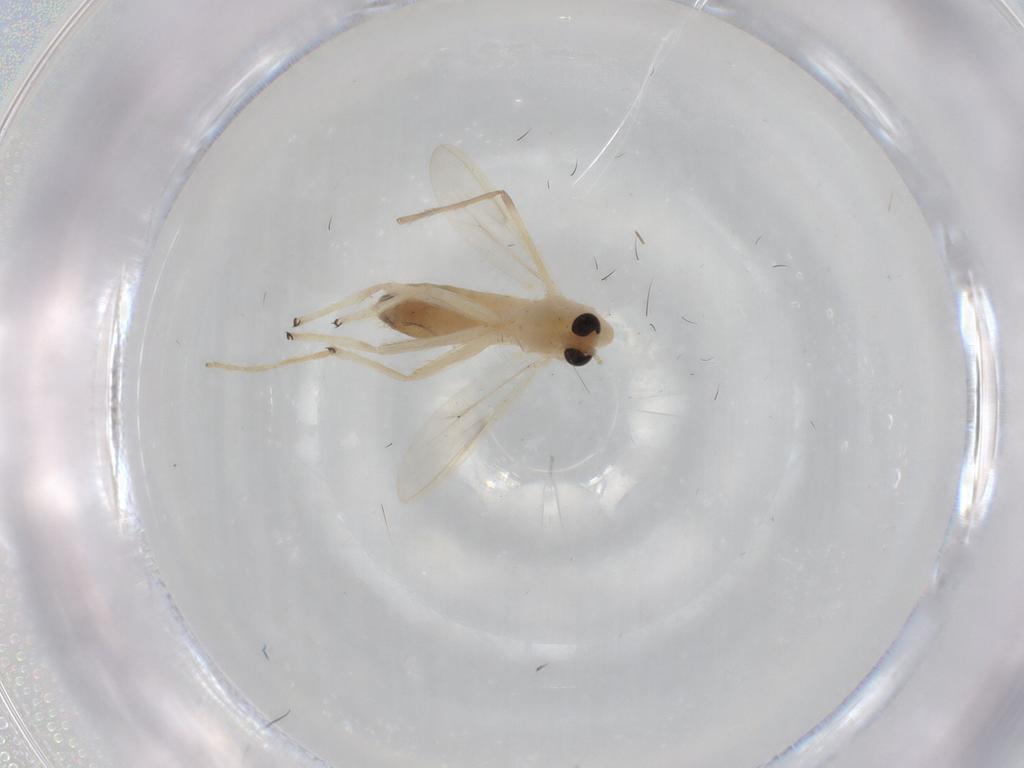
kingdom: Animalia
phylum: Arthropoda
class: Insecta
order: Diptera
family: Chironomidae
